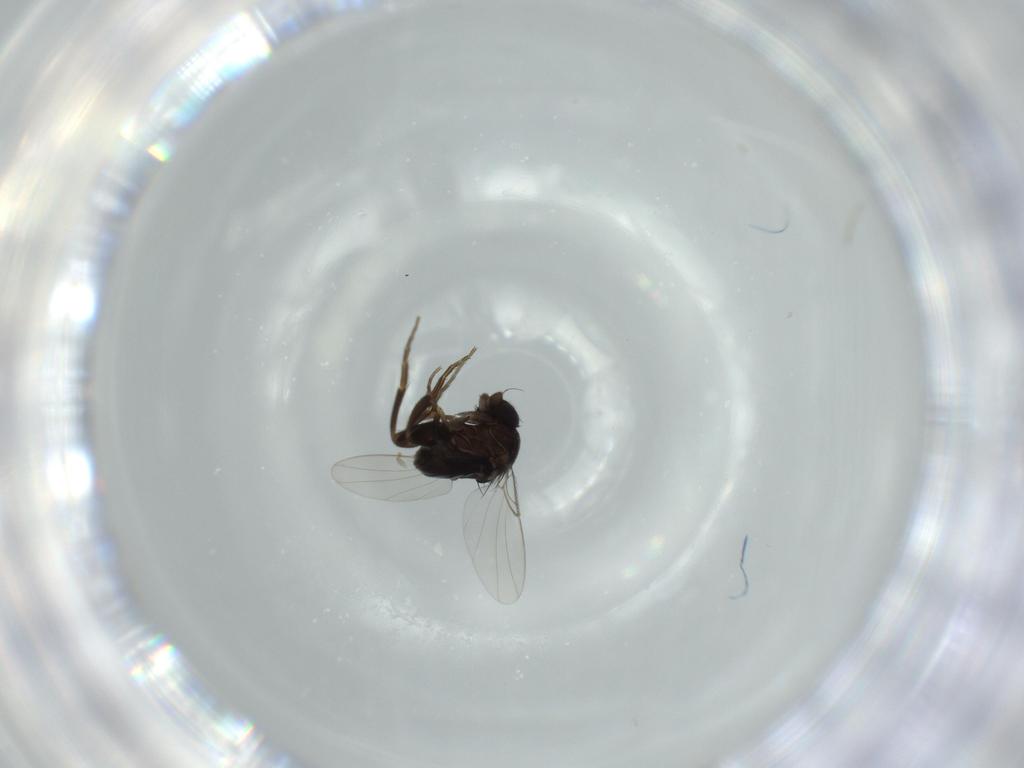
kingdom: Animalia
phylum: Arthropoda
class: Insecta
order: Diptera
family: Phoridae
